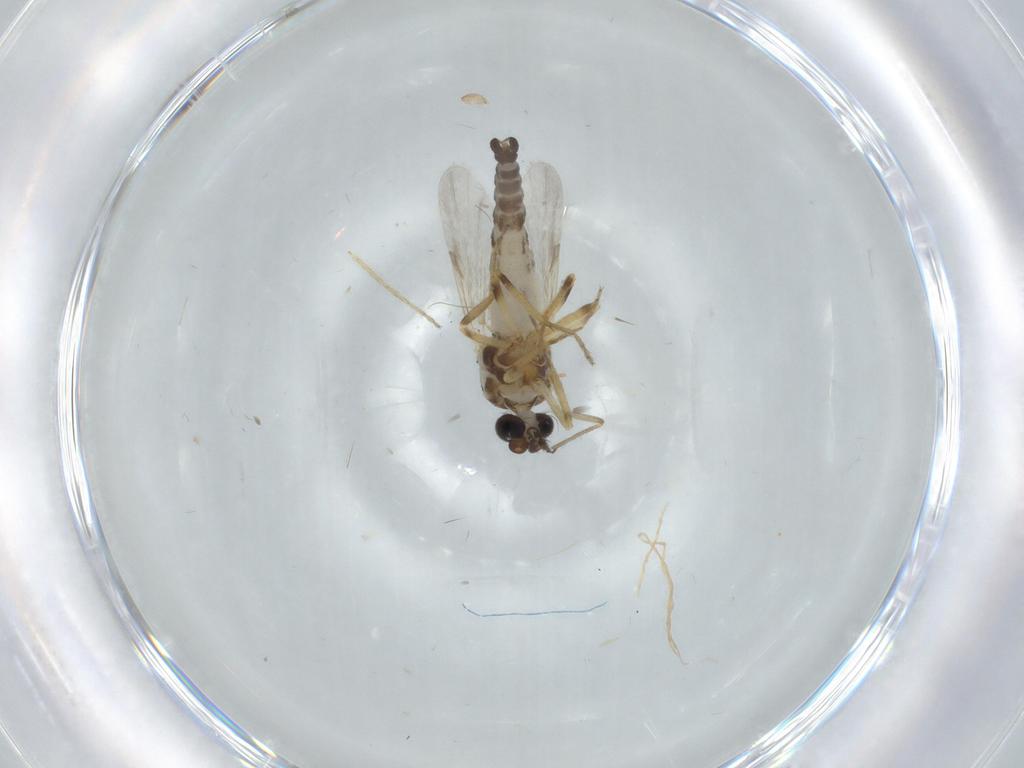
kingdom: Animalia
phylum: Arthropoda
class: Insecta
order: Diptera
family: Ceratopogonidae
